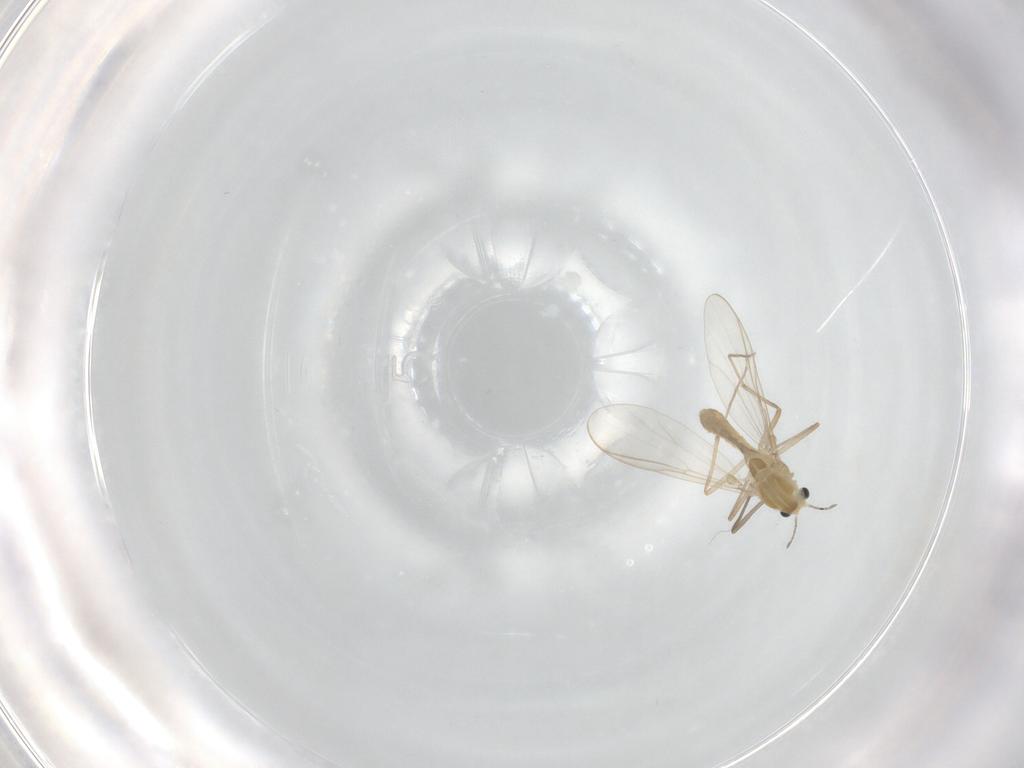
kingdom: Animalia
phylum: Arthropoda
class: Insecta
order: Diptera
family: Chironomidae
